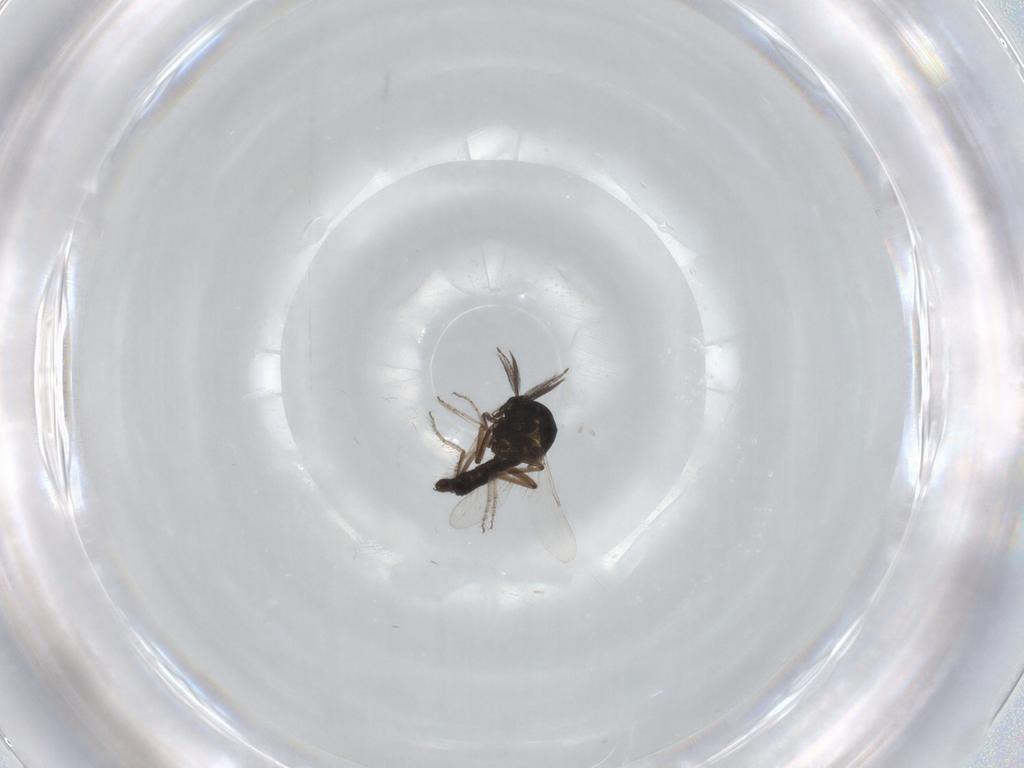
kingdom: Animalia
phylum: Arthropoda
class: Insecta
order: Diptera
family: Ceratopogonidae
